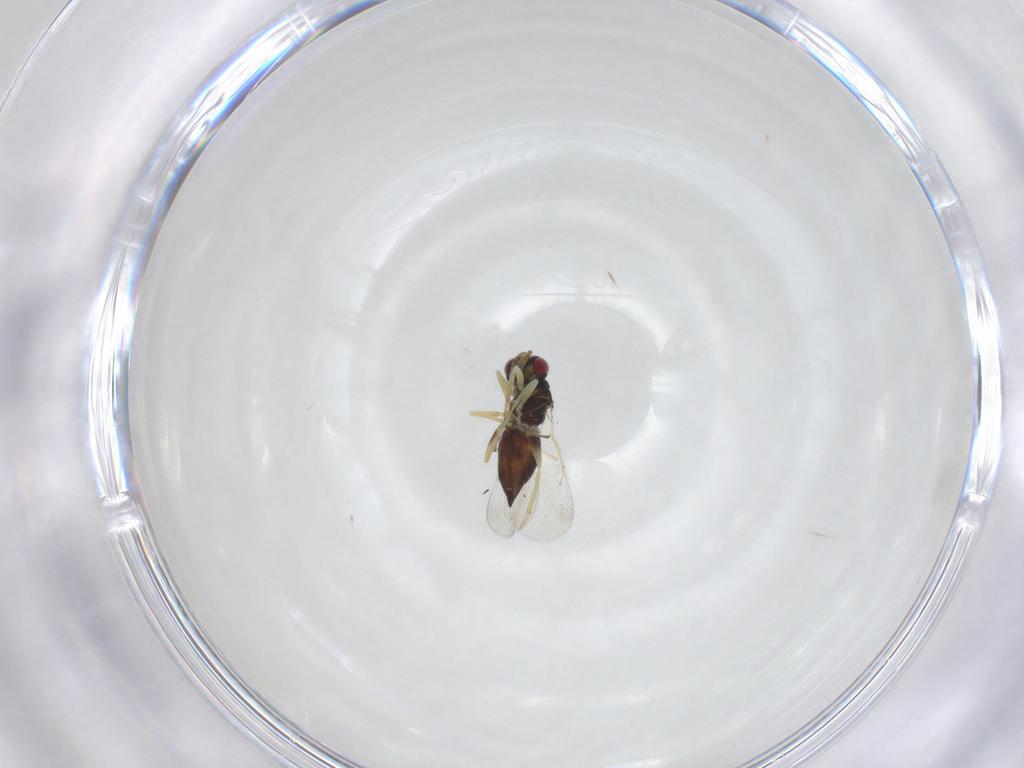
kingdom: Animalia
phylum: Arthropoda
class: Insecta
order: Hymenoptera
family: Eulophidae
